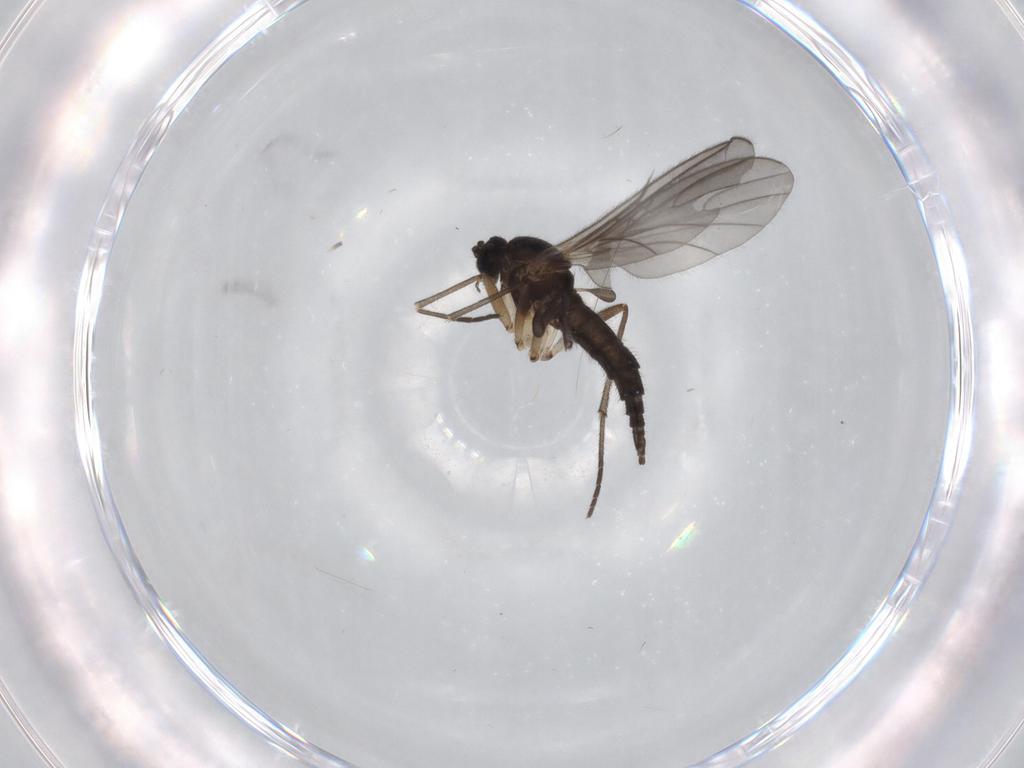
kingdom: Animalia
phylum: Arthropoda
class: Insecta
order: Diptera
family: Sciaridae
